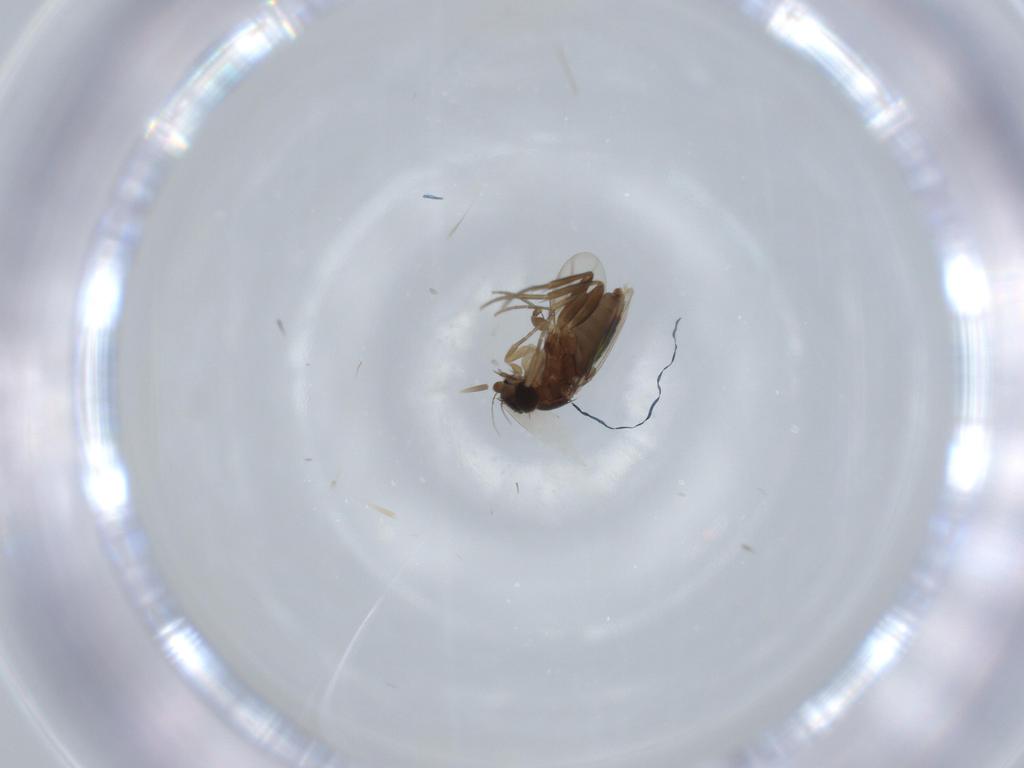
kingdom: Animalia
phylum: Arthropoda
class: Insecta
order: Diptera
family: Phoridae
